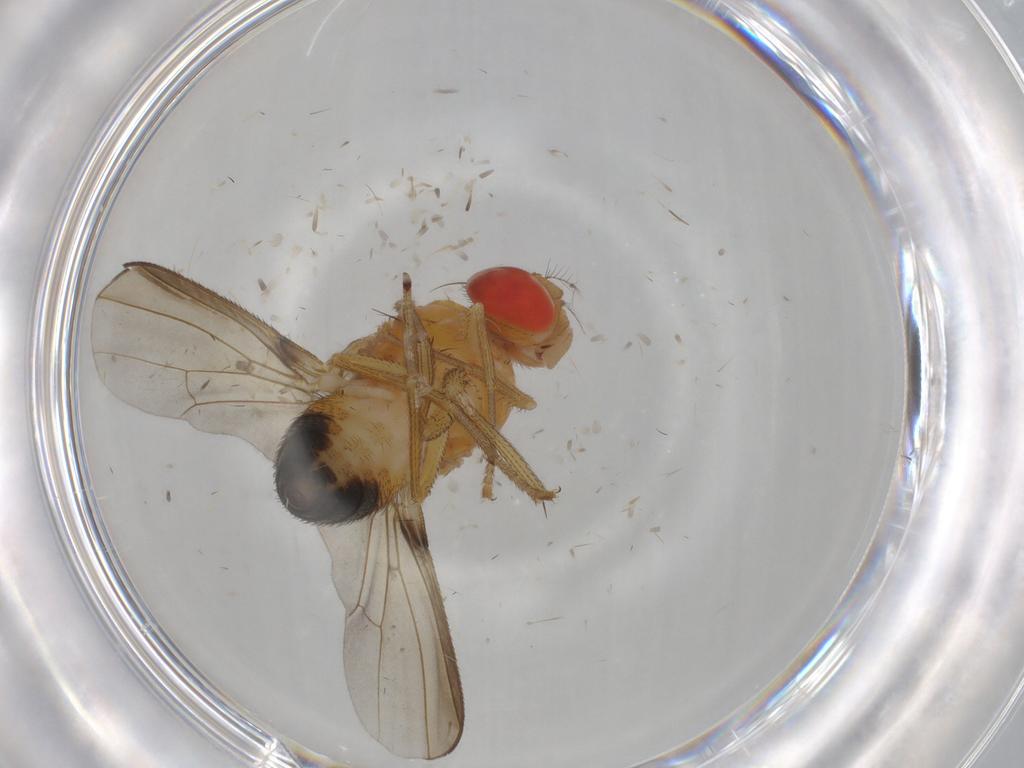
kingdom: Animalia
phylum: Arthropoda
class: Insecta
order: Diptera
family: Drosophilidae
